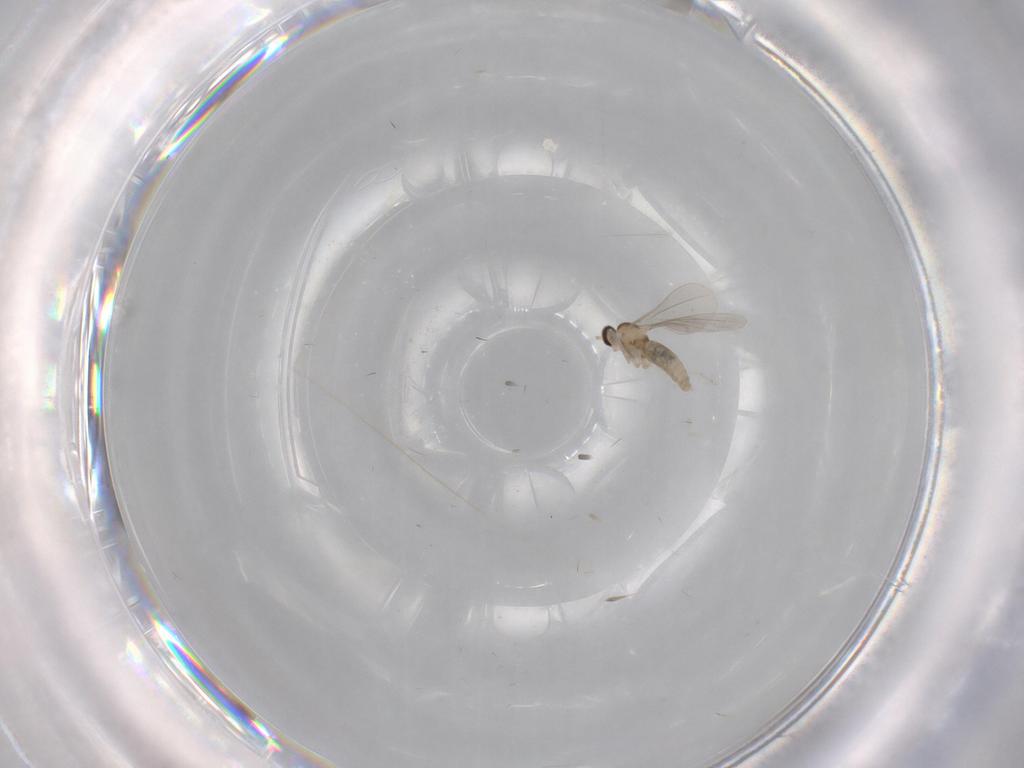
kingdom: Animalia
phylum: Arthropoda
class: Insecta
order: Diptera
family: Cecidomyiidae
